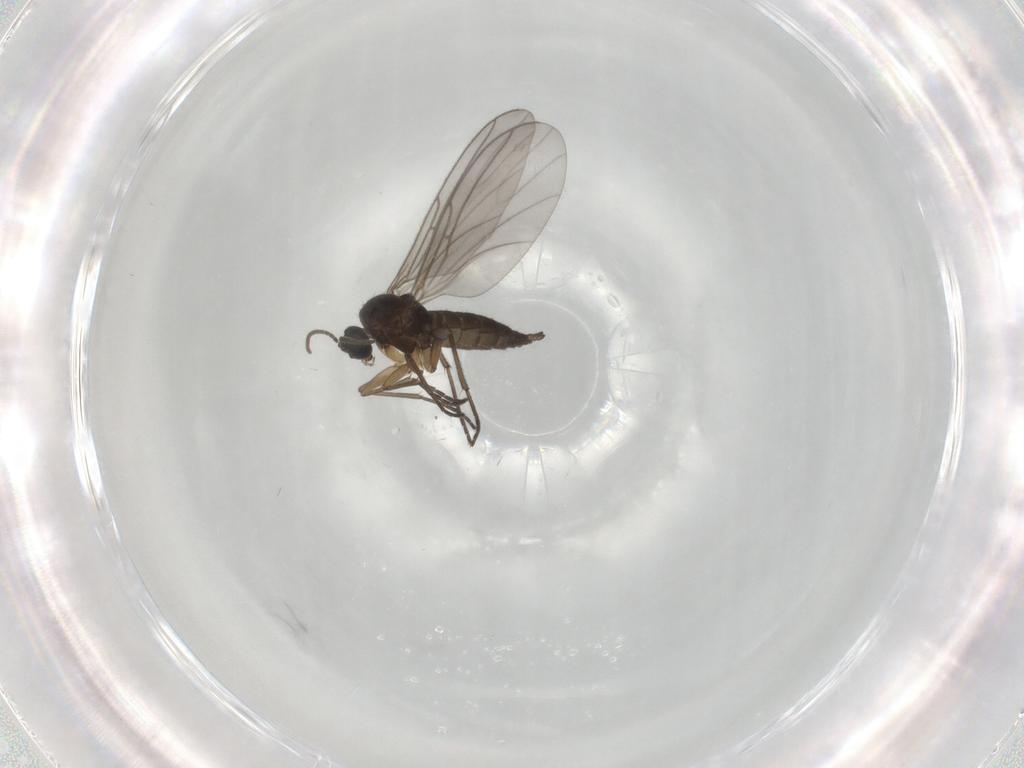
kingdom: Animalia
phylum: Arthropoda
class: Insecta
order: Diptera
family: Sciaridae
